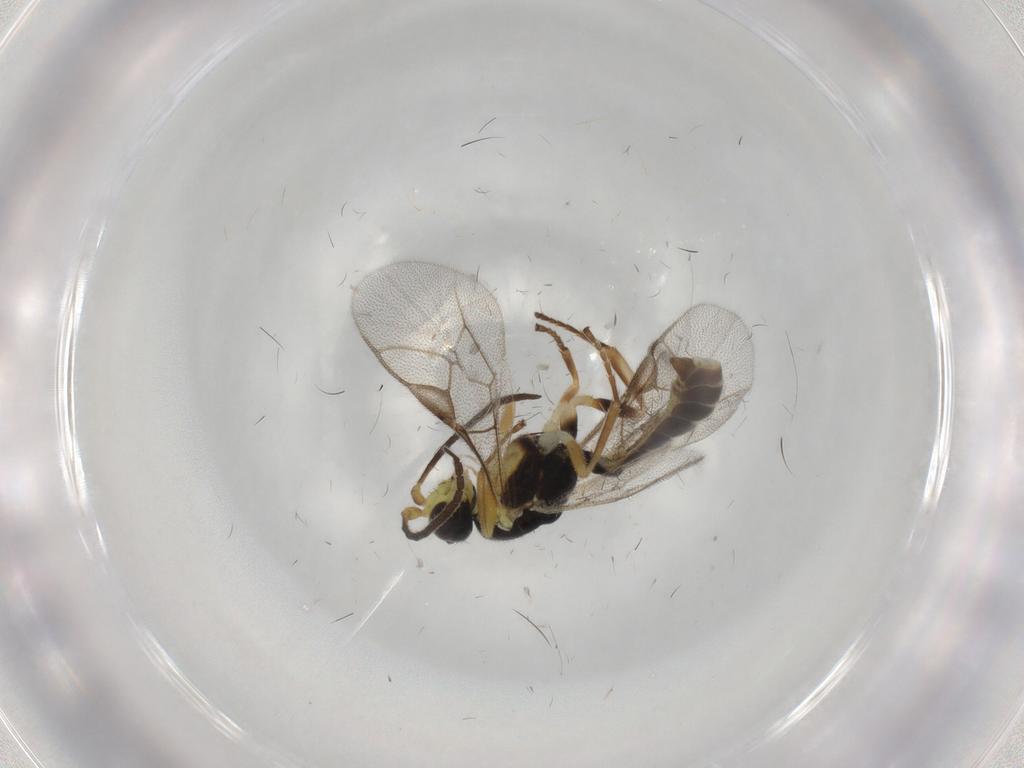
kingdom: Animalia
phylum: Arthropoda
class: Insecta
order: Hymenoptera
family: Ichneumonidae
